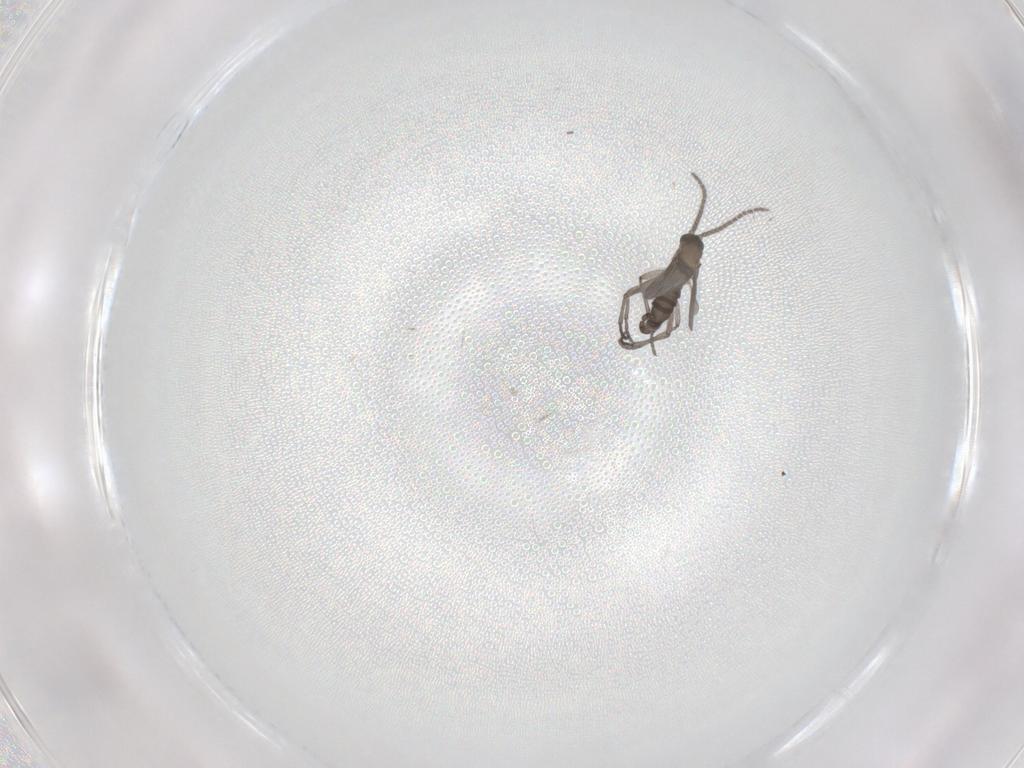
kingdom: Animalia
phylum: Arthropoda
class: Insecta
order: Diptera
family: Sciaridae
